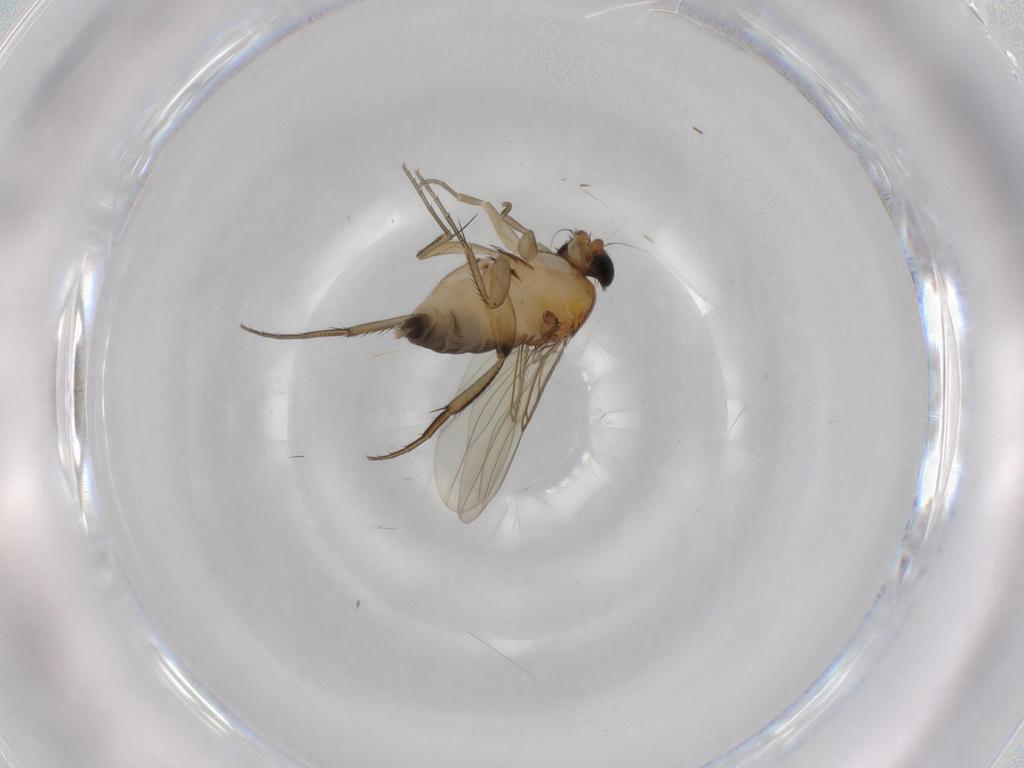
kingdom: Animalia
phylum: Arthropoda
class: Insecta
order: Diptera
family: Phoridae
